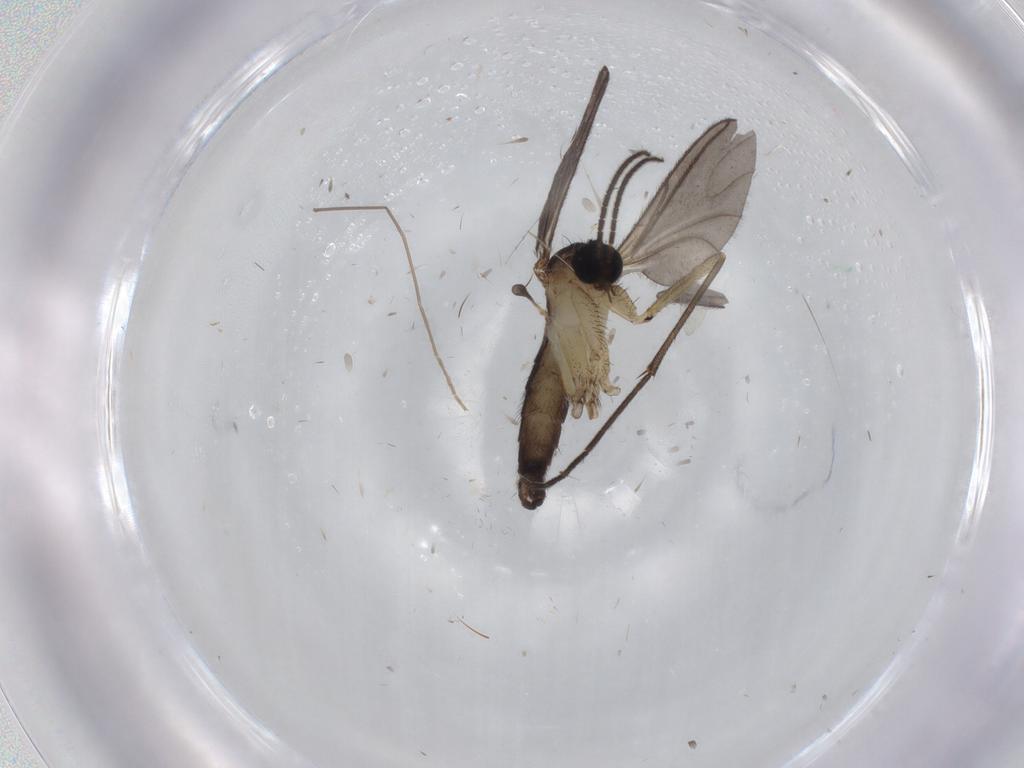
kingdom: Animalia
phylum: Arthropoda
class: Insecta
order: Diptera
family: Sciaridae
